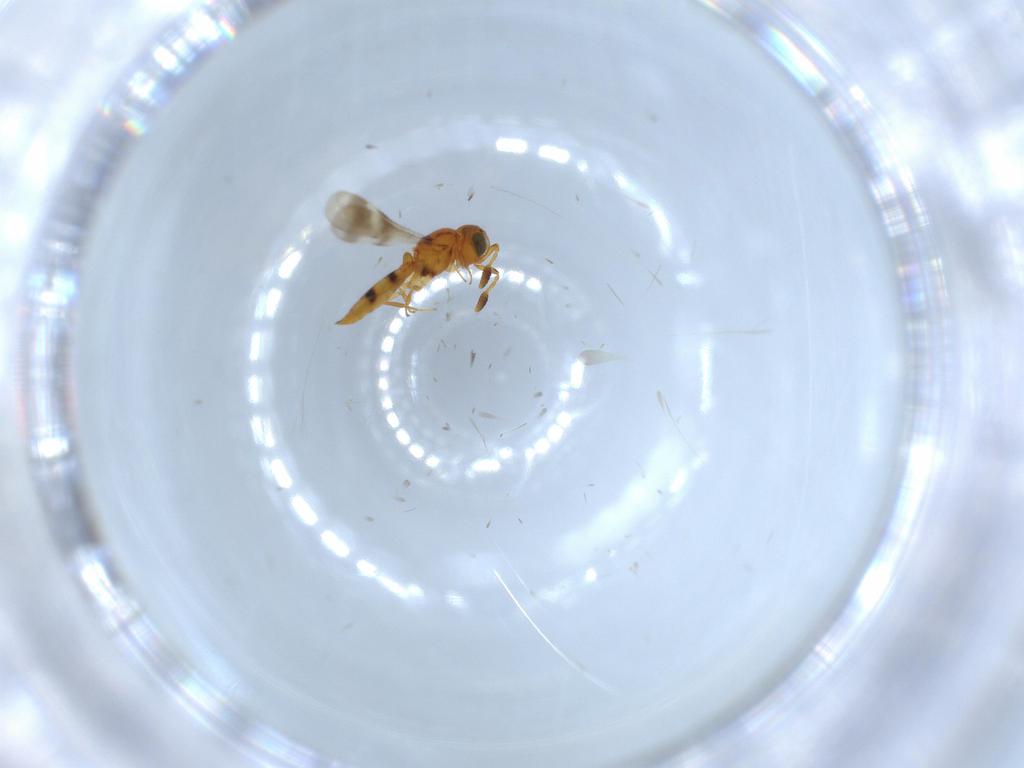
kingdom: Animalia
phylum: Arthropoda
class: Insecta
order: Hymenoptera
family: Scelionidae
